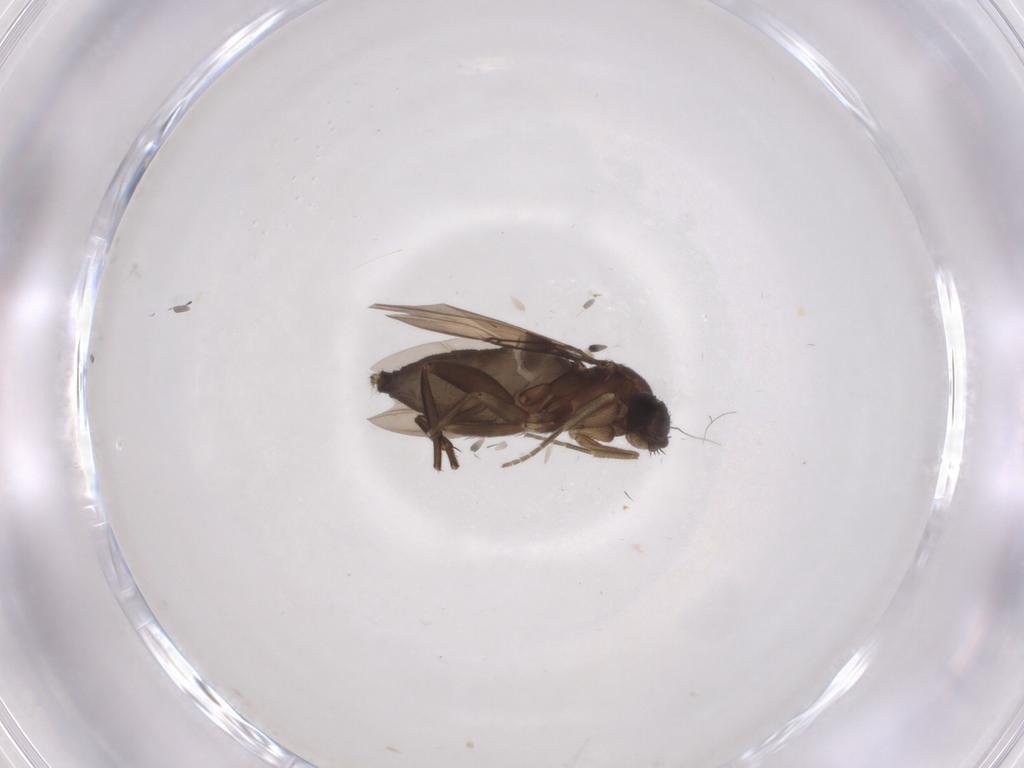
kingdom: Animalia
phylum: Arthropoda
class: Insecta
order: Diptera
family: Phoridae
